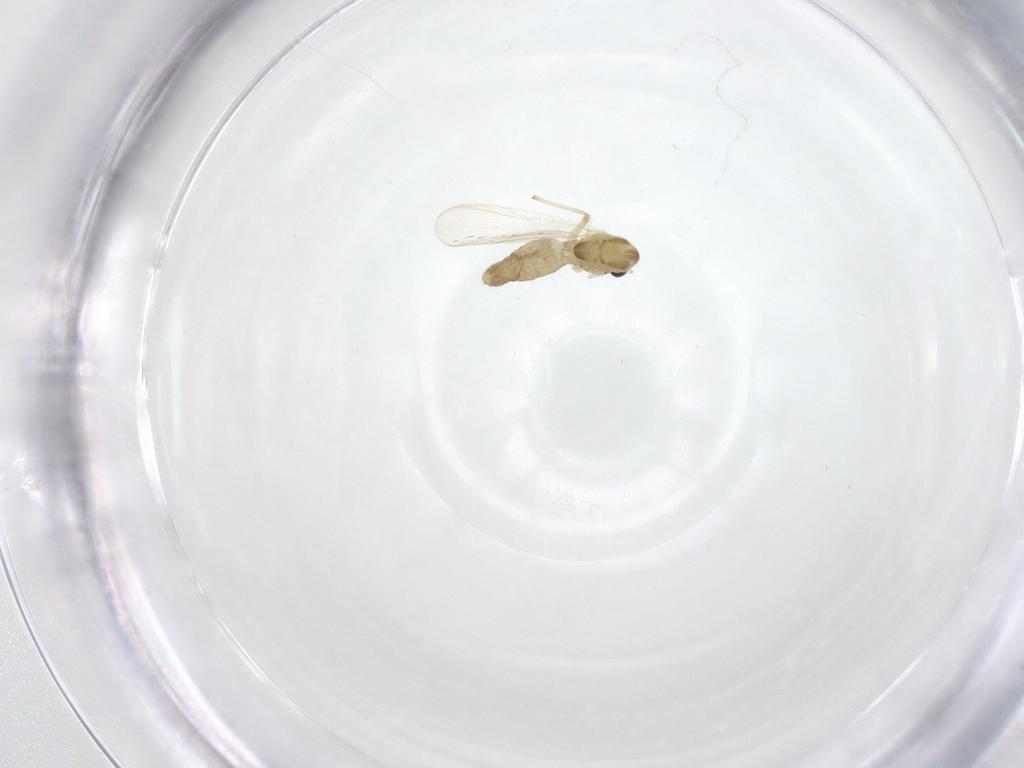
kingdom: Animalia
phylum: Arthropoda
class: Insecta
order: Diptera
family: Chironomidae
